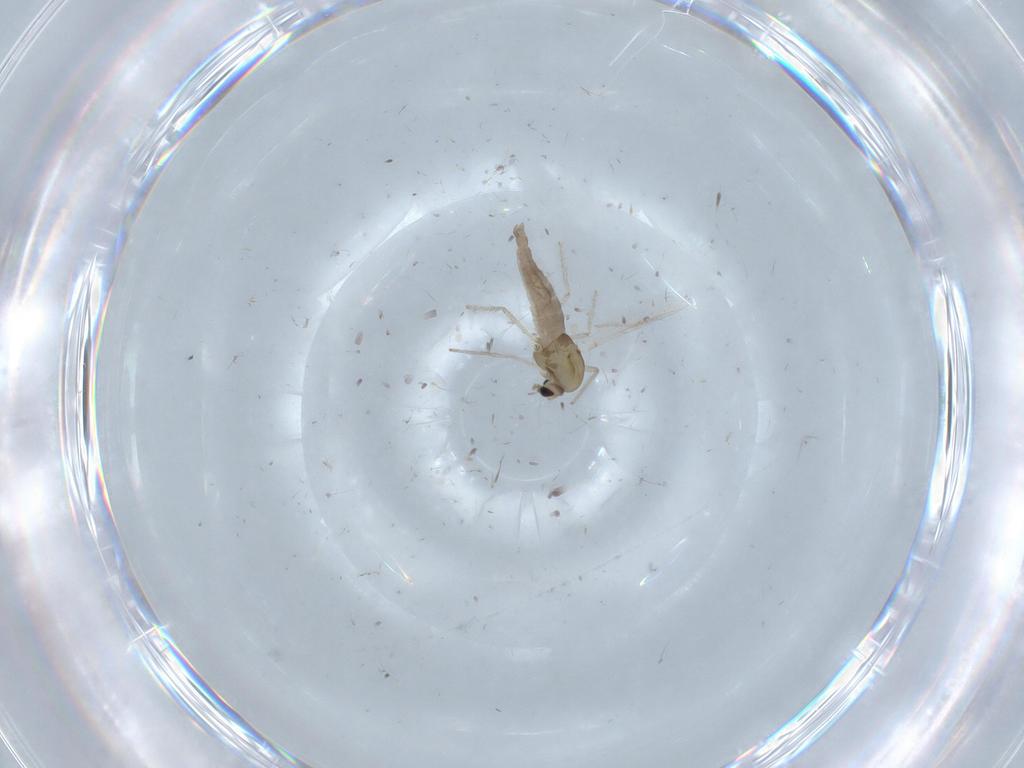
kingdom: Animalia
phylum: Arthropoda
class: Insecta
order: Diptera
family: Chironomidae
